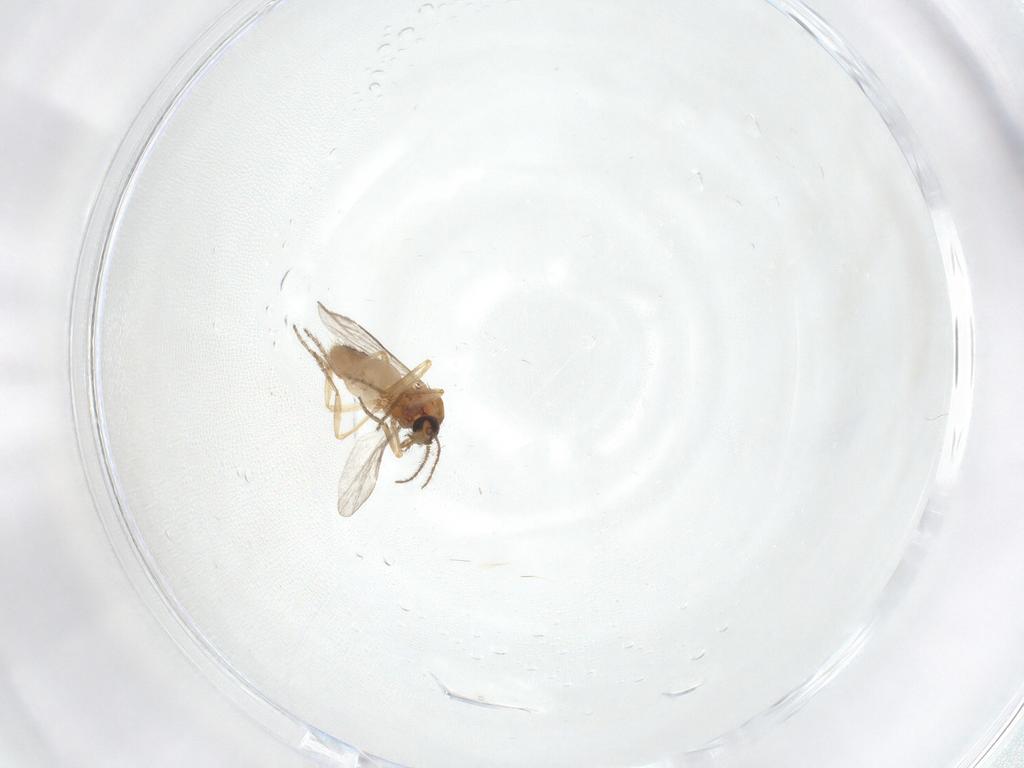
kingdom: Animalia
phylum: Arthropoda
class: Insecta
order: Diptera
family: Ceratopogonidae
